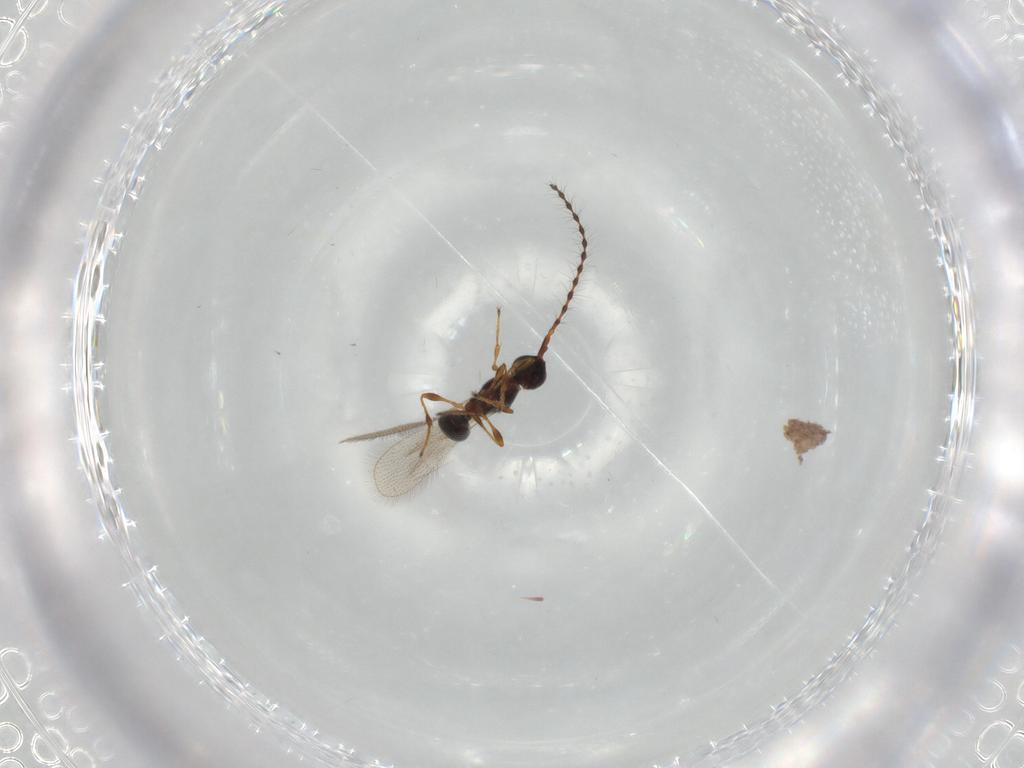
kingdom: Animalia
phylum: Arthropoda
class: Insecta
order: Hymenoptera
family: Diapriidae
